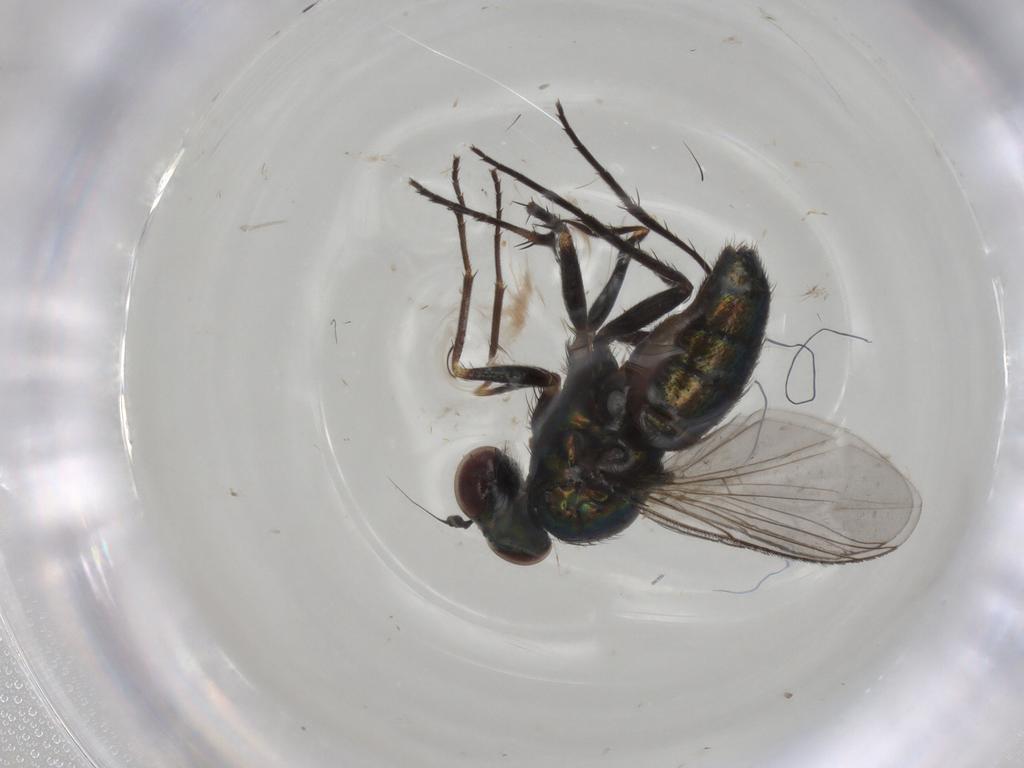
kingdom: Animalia
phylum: Arthropoda
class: Insecta
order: Diptera
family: Dolichopodidae
